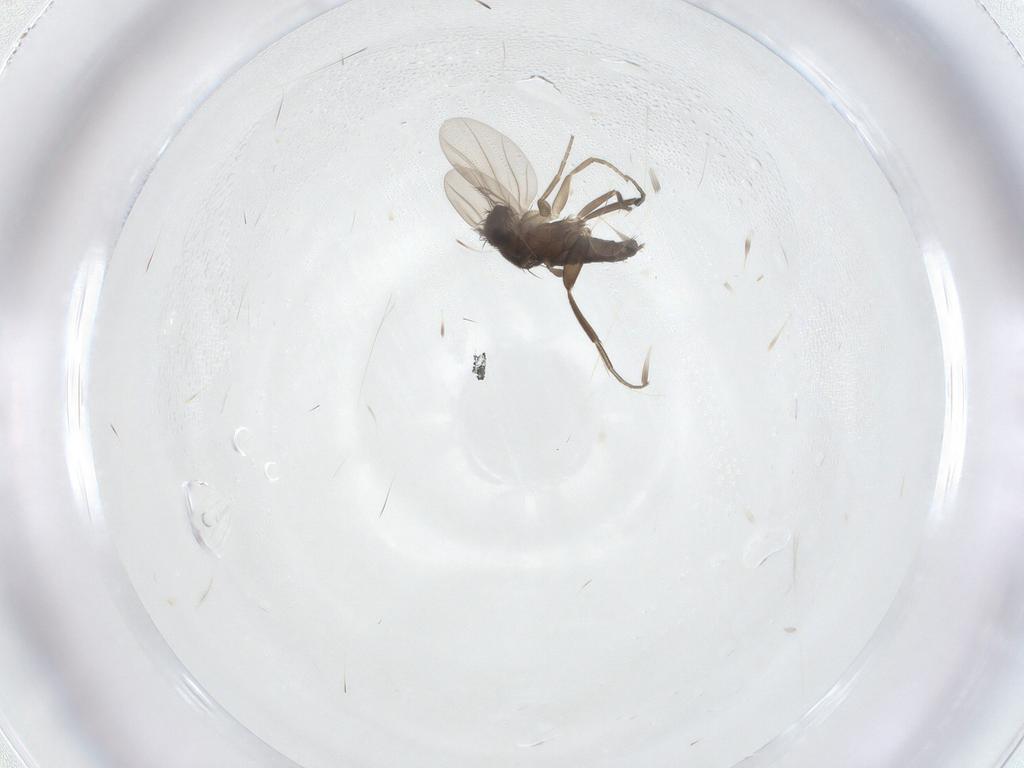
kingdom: Animalia
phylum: Arthropoda
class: Insecta
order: Diptera
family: Phoridae
